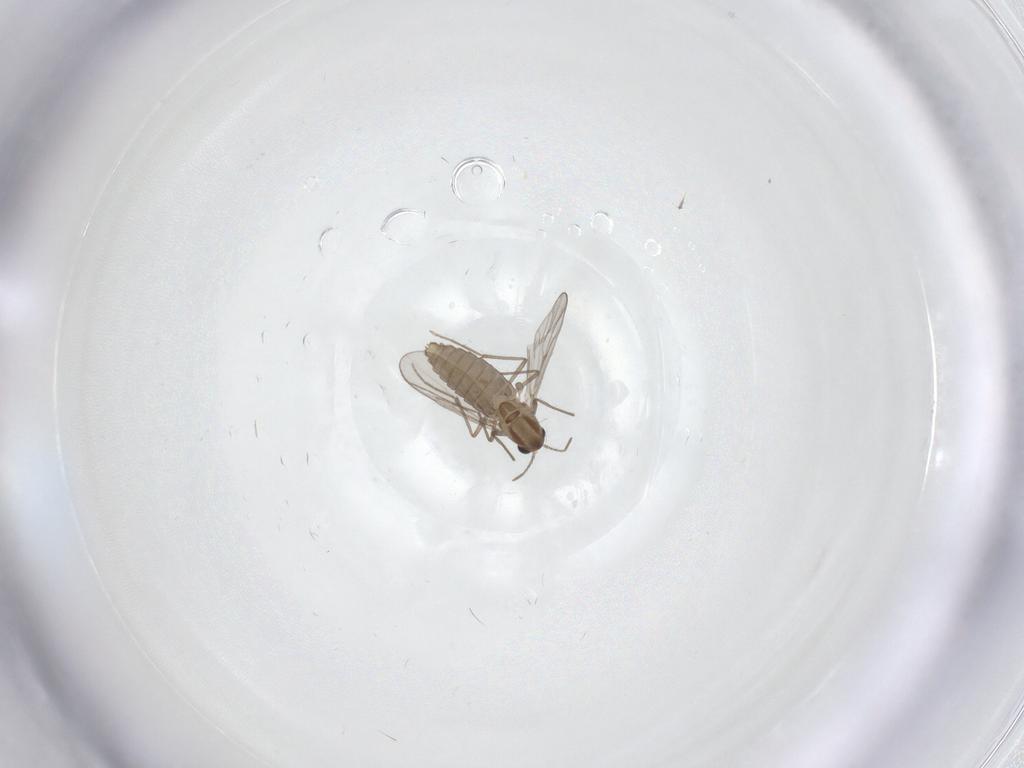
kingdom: Animalia
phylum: Arthropoda
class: Insecta
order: Diptera
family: Chironomidae
